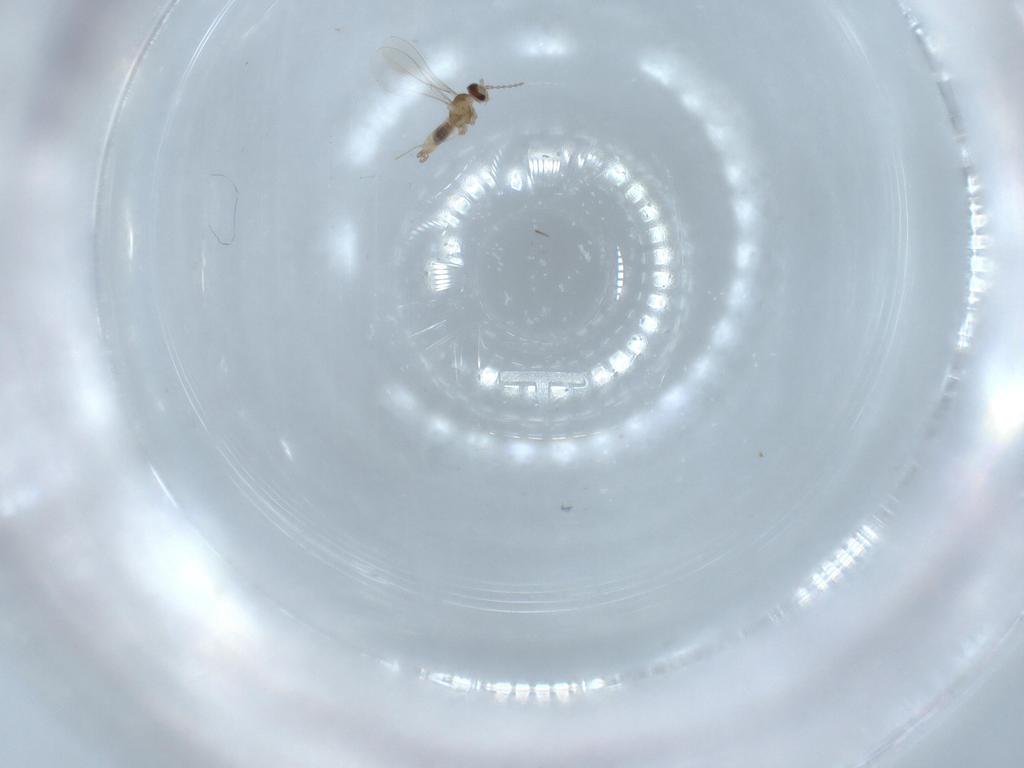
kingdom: Animalia
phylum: Arthropoda
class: Insecta
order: Diptera
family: Cecidomyiidae
